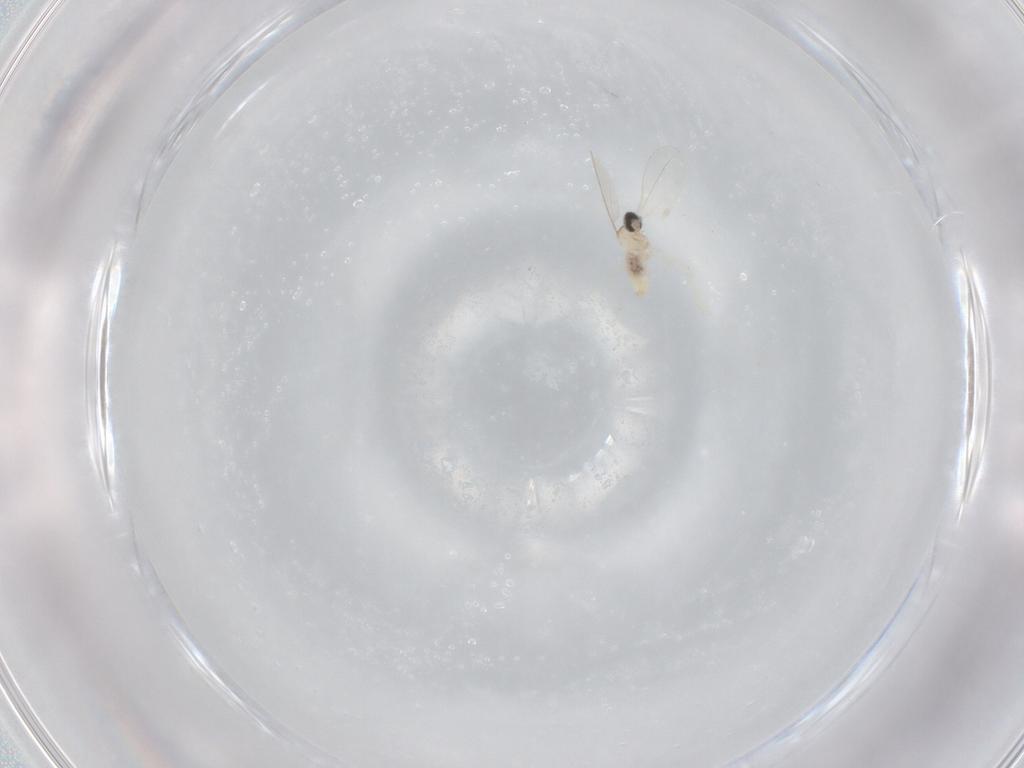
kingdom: Animalia
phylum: Arthropoda
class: Insecta
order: Diptera
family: Cecidomyiidae
